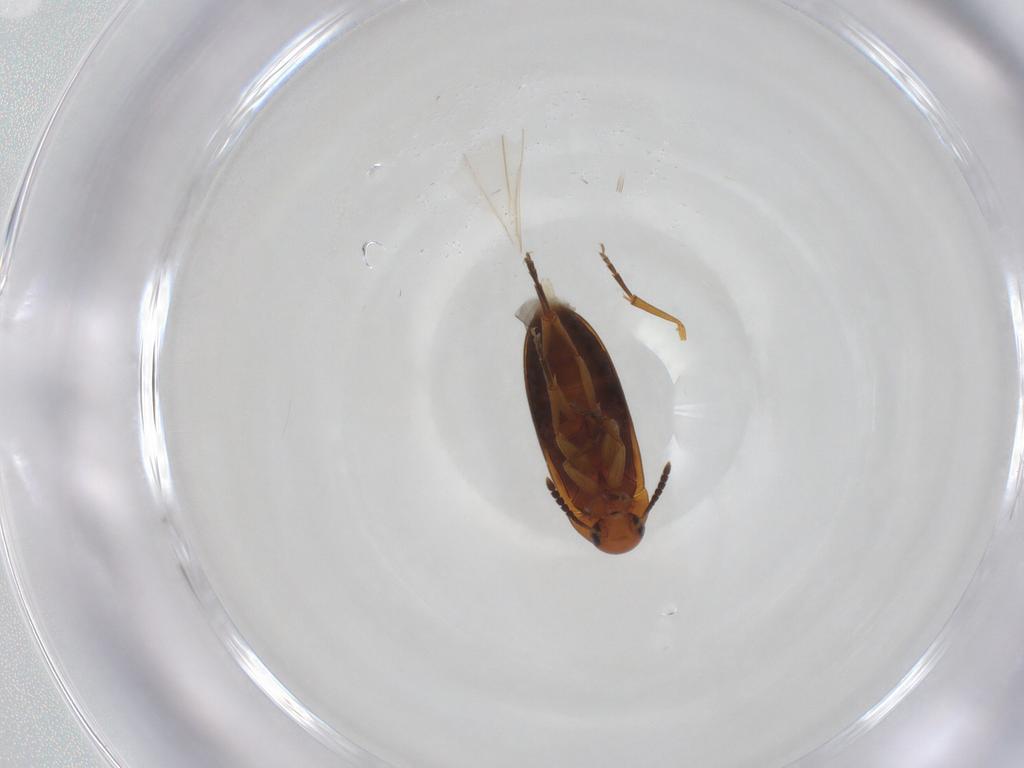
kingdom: Animalia
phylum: Arthropoda
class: Insecta
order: Coleoptera
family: Scraptiidae
